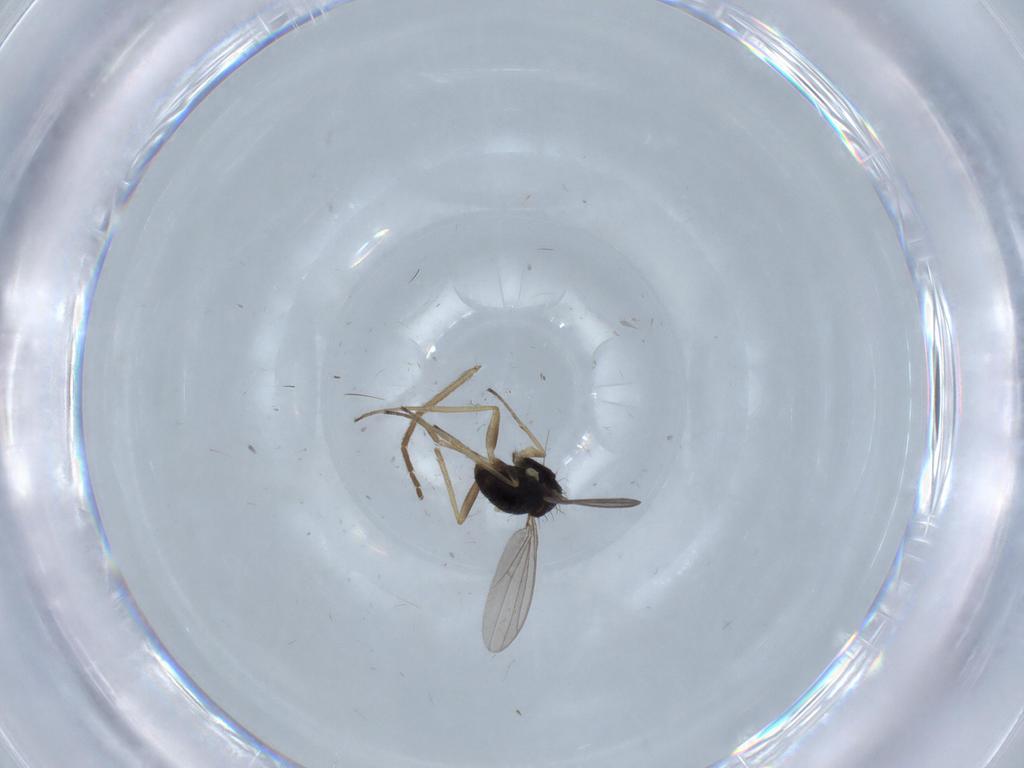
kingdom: Animalia
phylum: Arthropoda
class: Insecta
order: Diptera
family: Dolichopodidae
